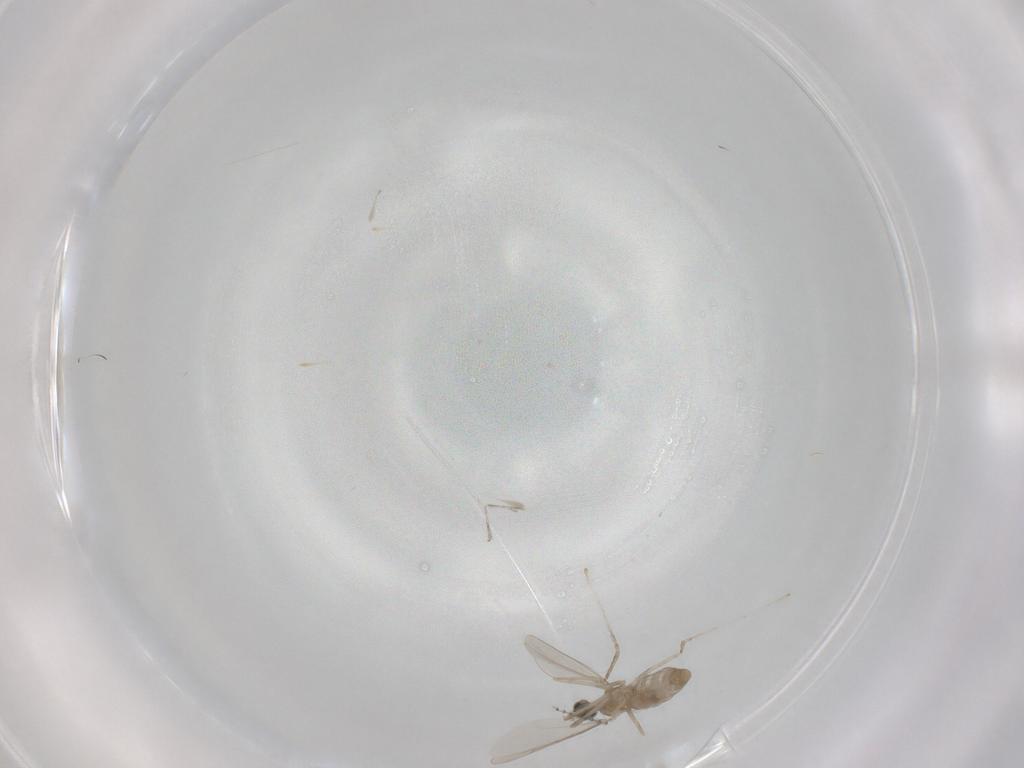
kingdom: Animalia
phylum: Arthropoda
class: Insecta
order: Diptera
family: Cecidomyiidae
